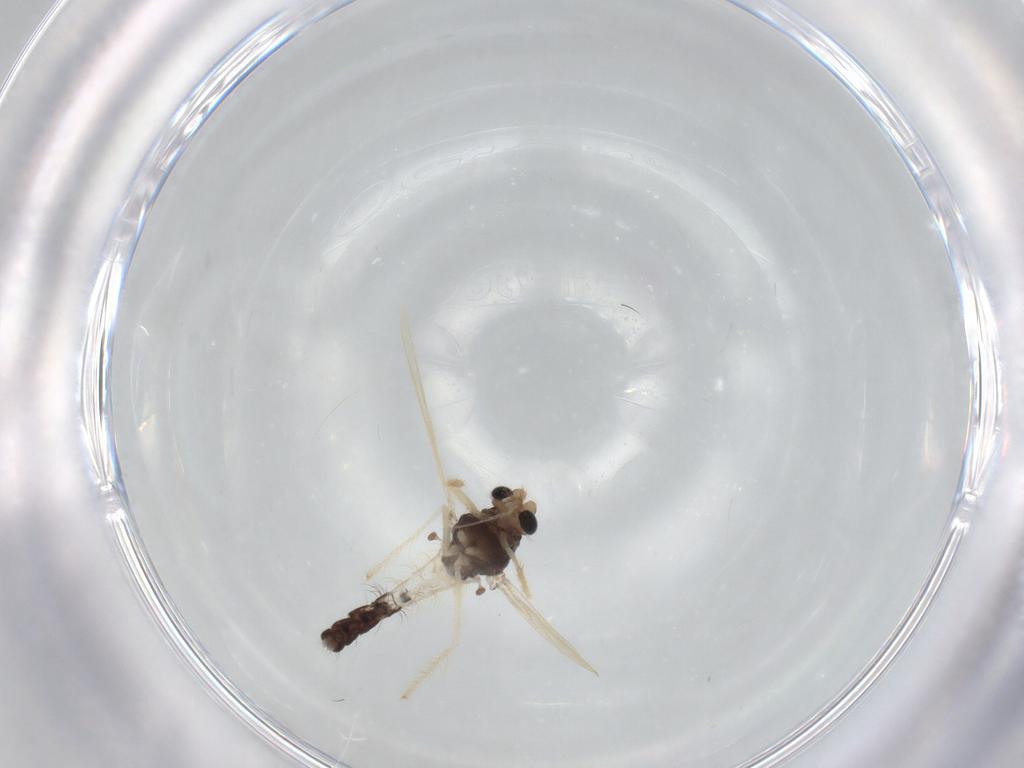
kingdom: Animalia
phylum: Arthropoda
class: Insecta
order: Diptera
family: Chironomidae
